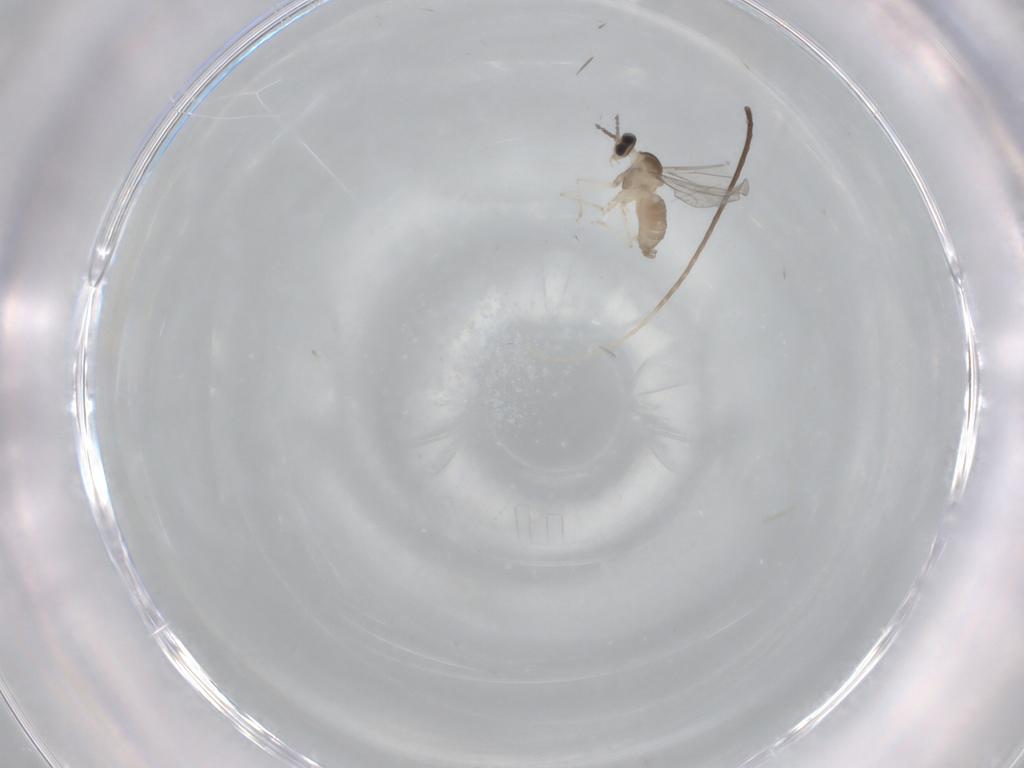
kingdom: Animalia
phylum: Arthropoda
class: Insecta
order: Diptera
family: Cecidomyiidae
